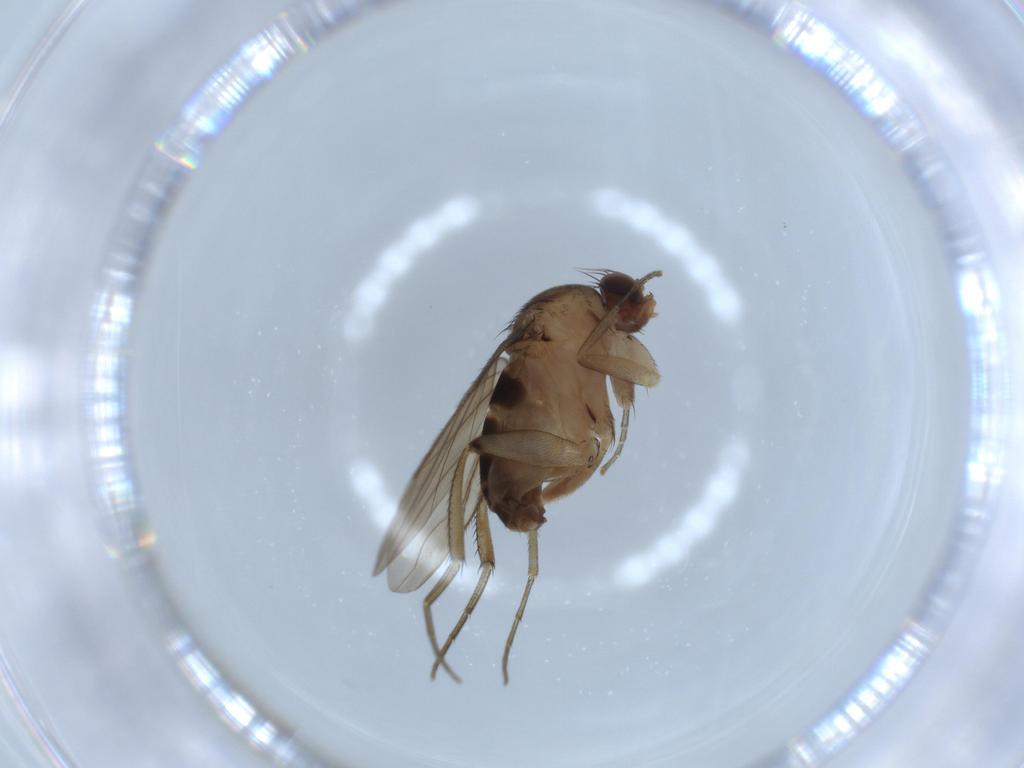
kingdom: Animalia
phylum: Arthropoda
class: Insecta
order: Diptera
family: Phoridae
